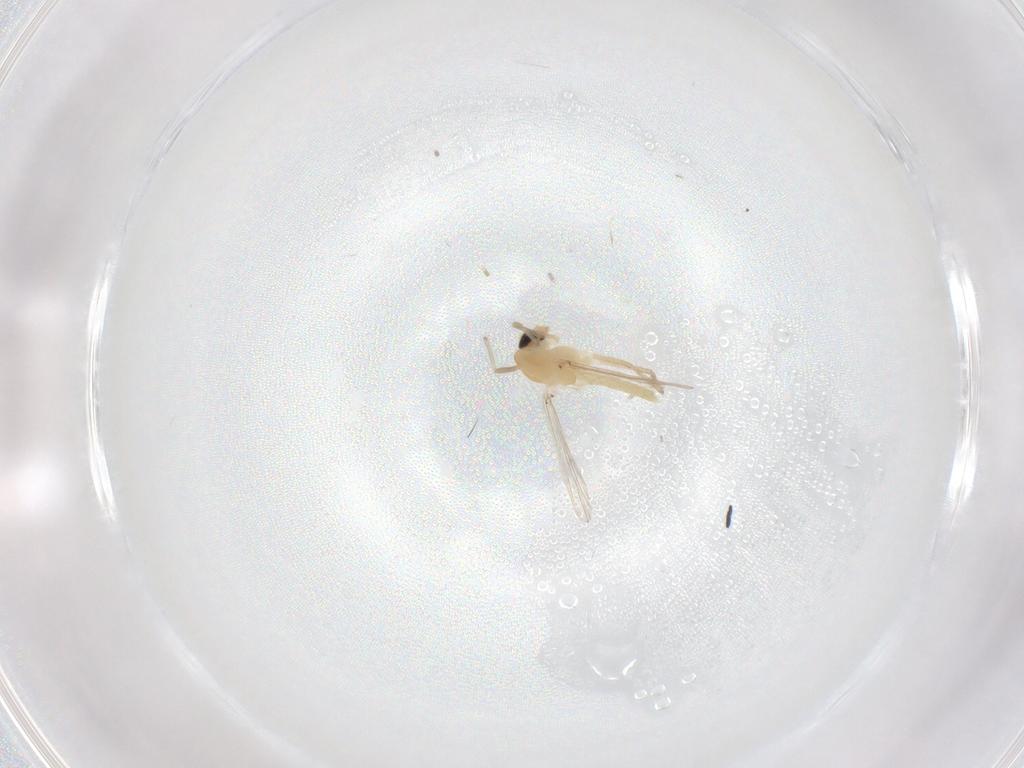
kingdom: Animalia
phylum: Arthropoda
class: Insecta
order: Diptera
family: Chironomidae
